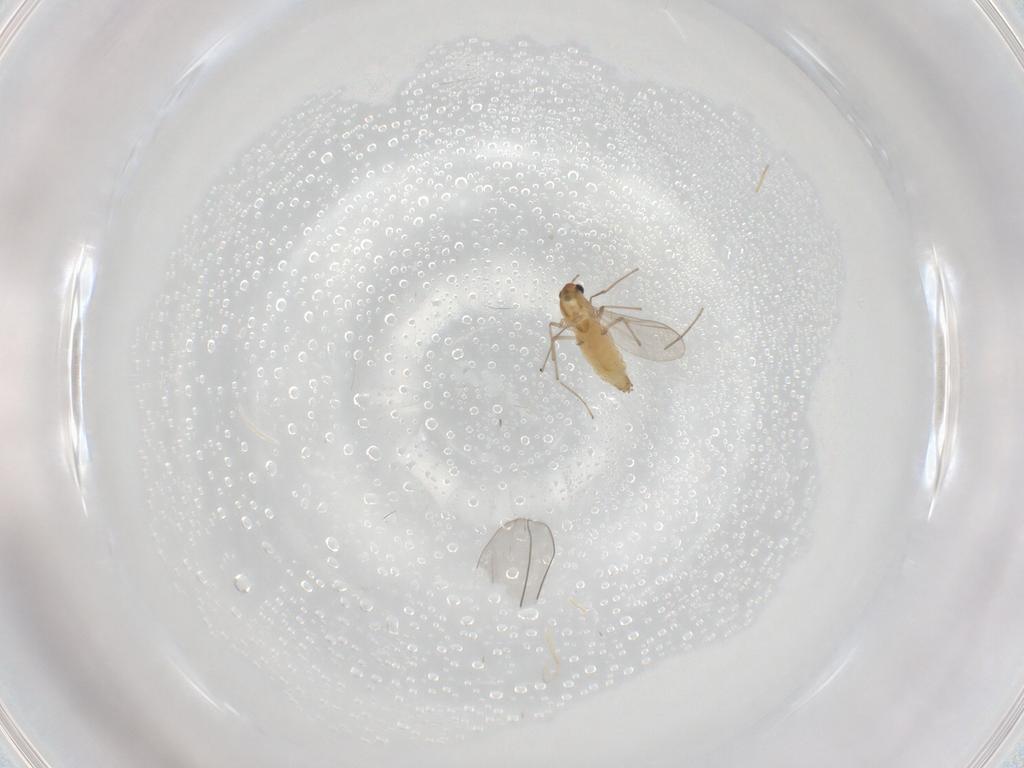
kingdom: Animalia
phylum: Arthropoda
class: Insecta
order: Diptera
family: Chironomidae
